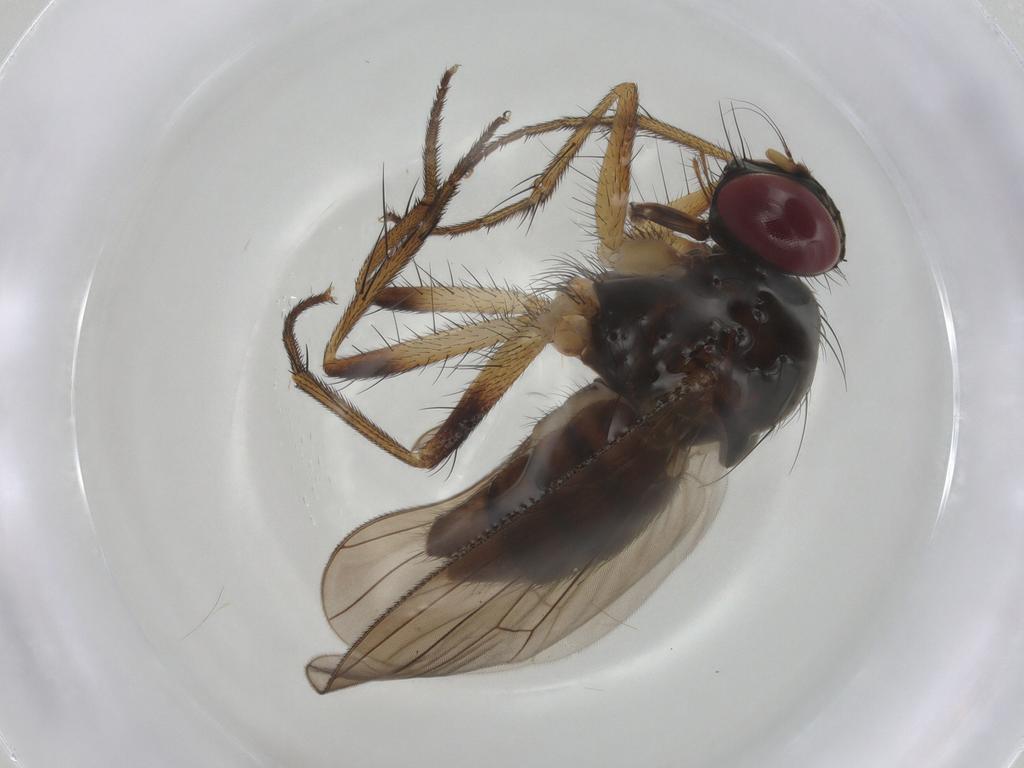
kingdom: Animalia
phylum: Arthropoda
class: Insecta
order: Diptera
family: Muscidae
